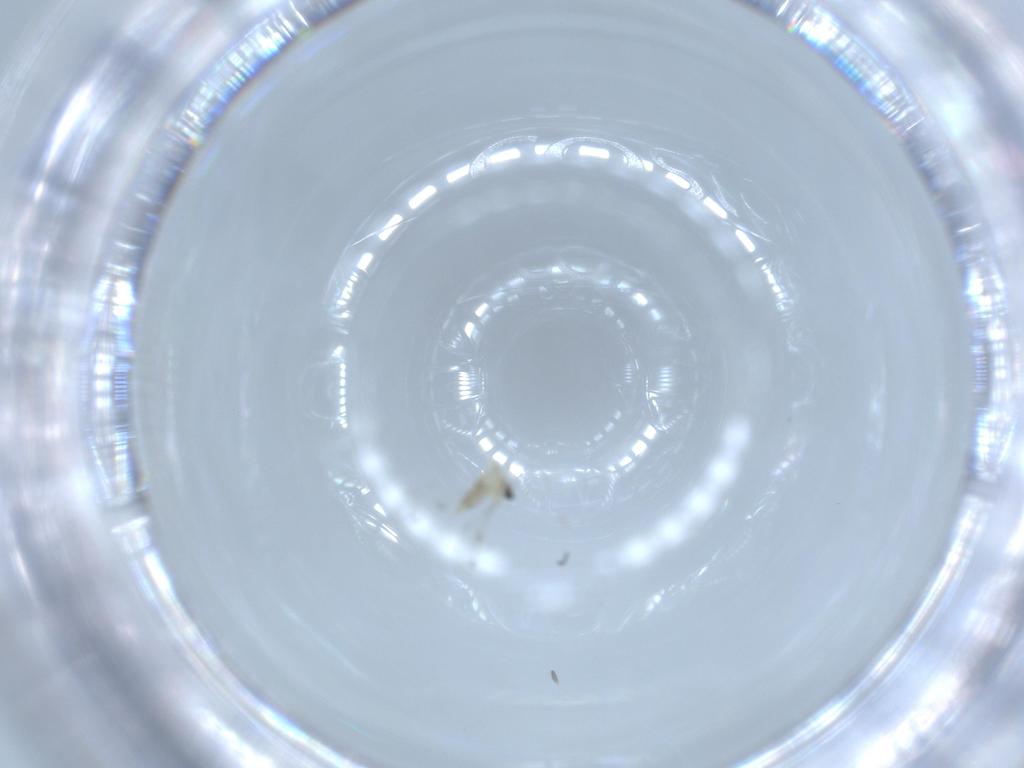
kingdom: Animalia
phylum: Arthropoda
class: Insecta
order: Diptera
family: Cecidomyiidae
